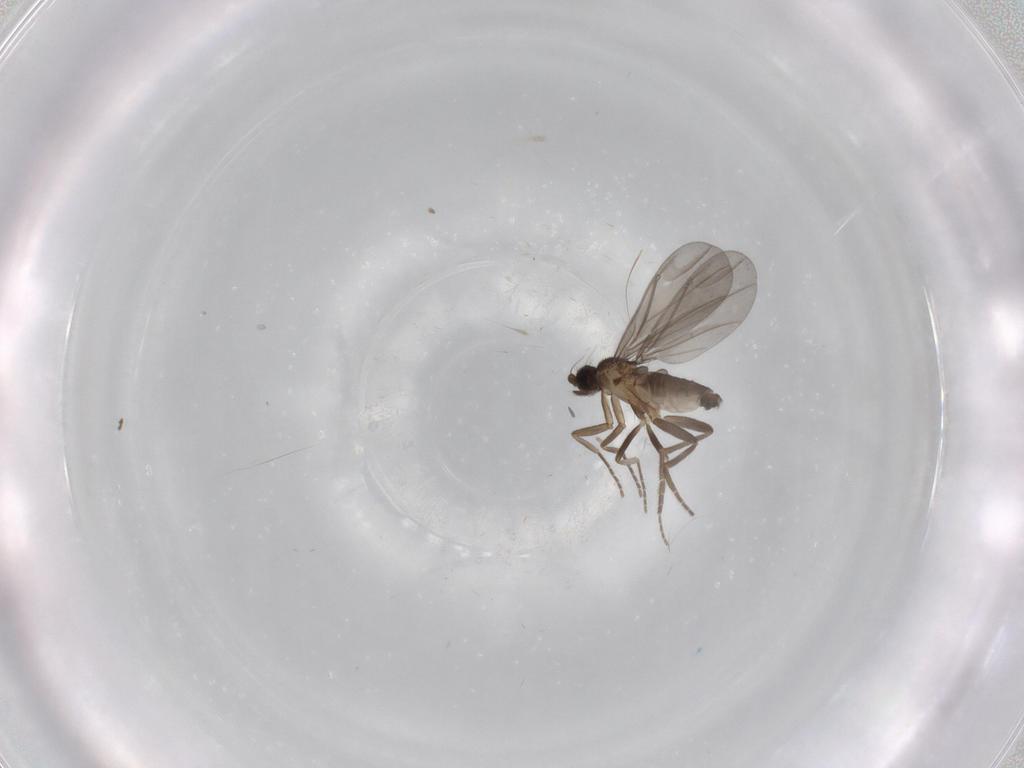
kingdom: Animalia
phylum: Arthropoda
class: Insecta
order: Diptera
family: Phoridae
